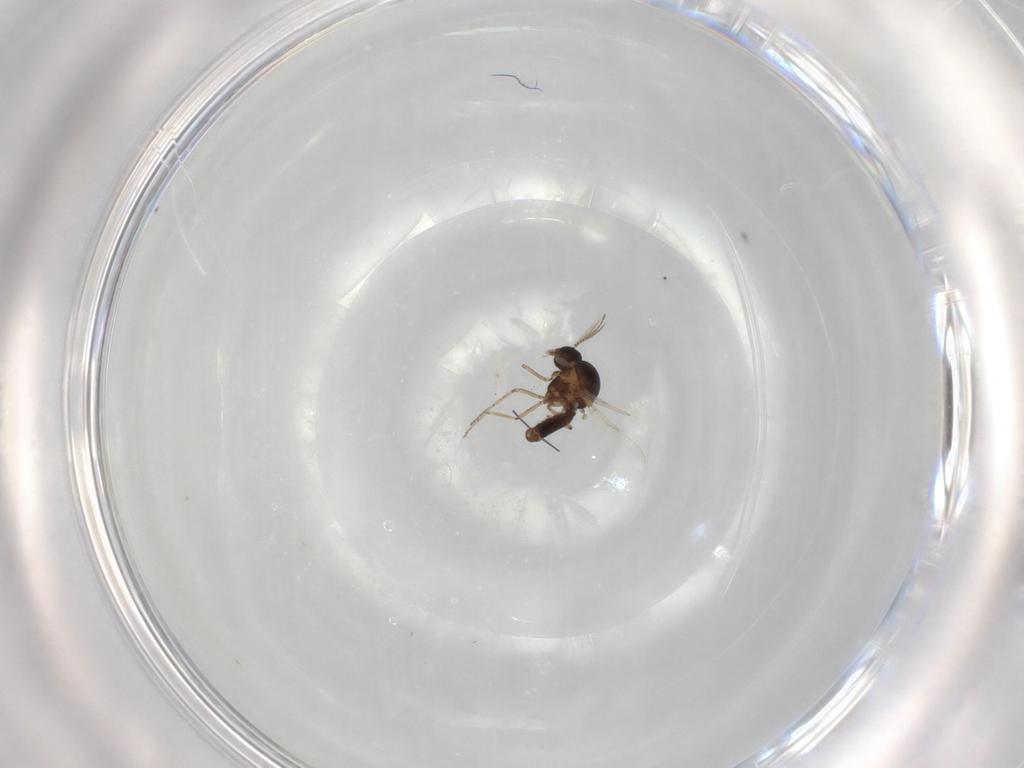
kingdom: Animalia
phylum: Arthropoda
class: Insecta
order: Diptera
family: Ceratopogonidae
